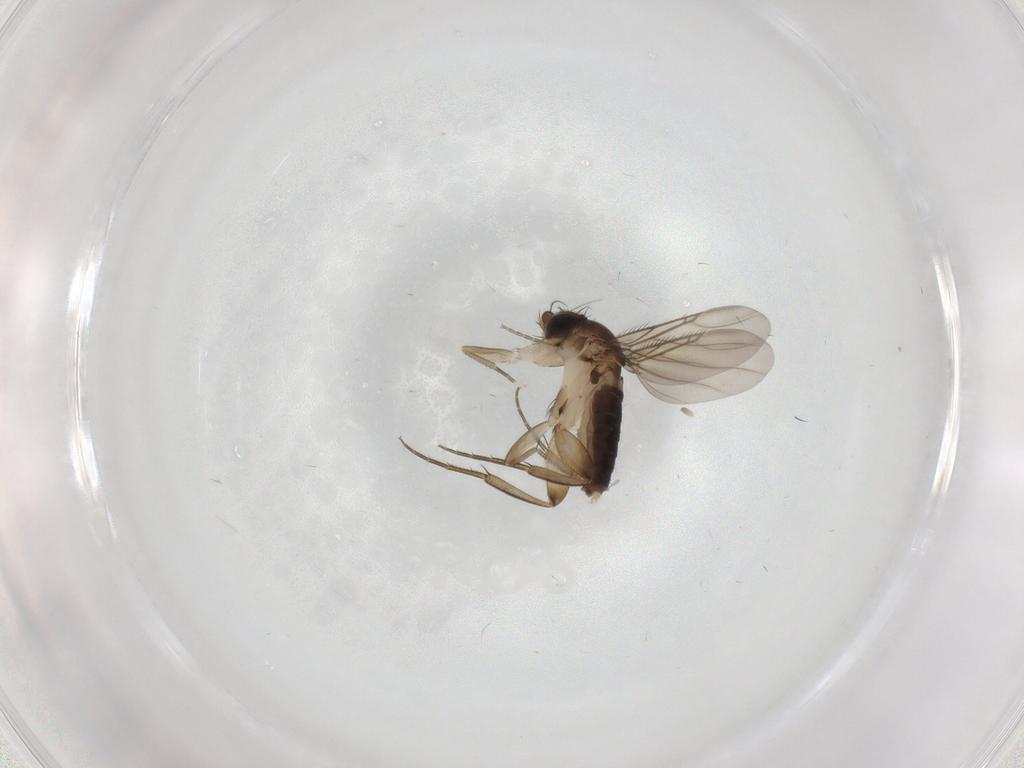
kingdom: Animalia
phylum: Arthropoda
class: Insecta
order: Diptera
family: Phoridae
